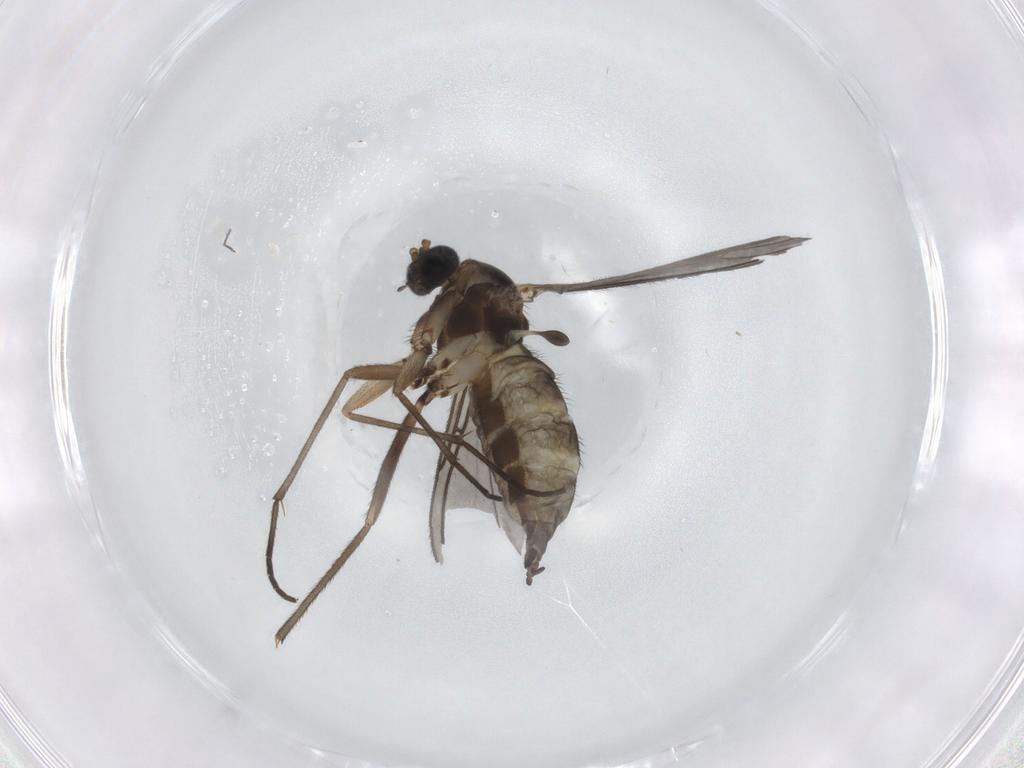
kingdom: Animalia
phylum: Arthropoda
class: Insecta
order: Diptera
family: Sciaridae
